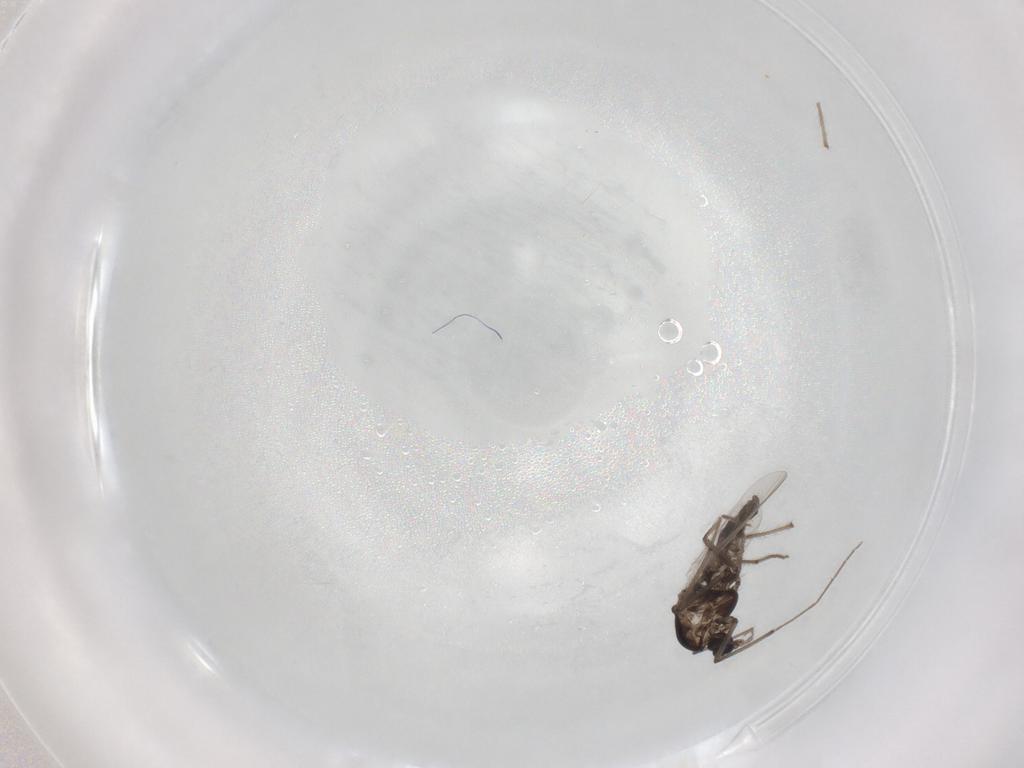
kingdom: Animalia
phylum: Arthropoda
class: Insecta
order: Diptera
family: Chironomidae
